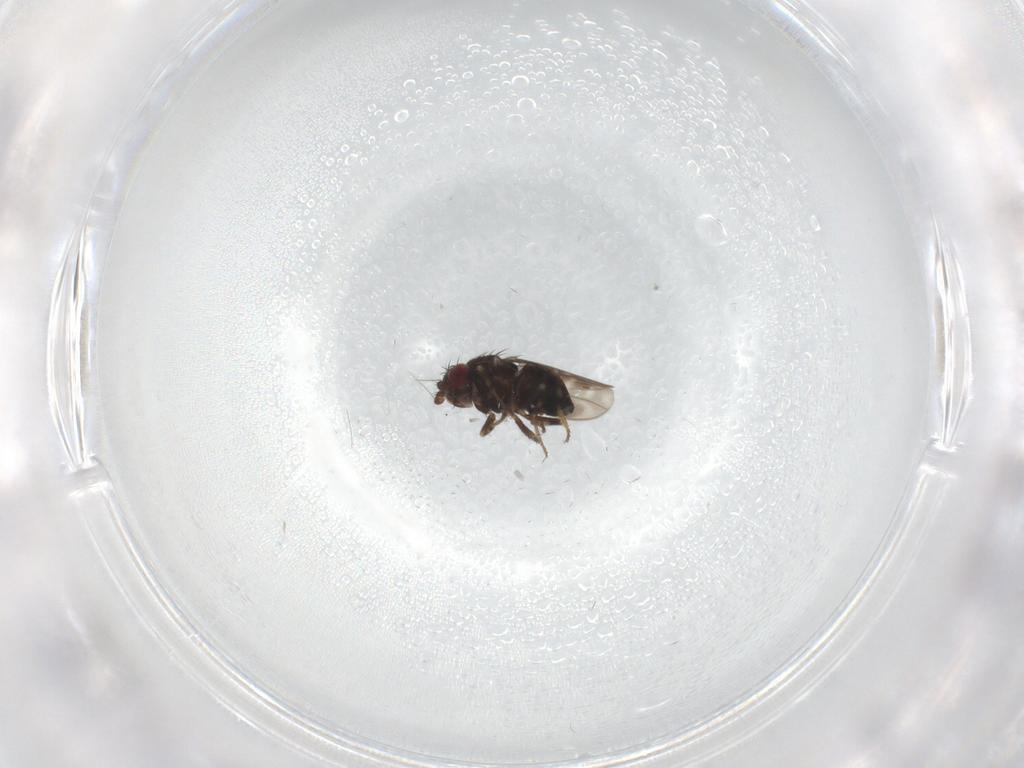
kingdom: Animalia
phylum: Arthropoda
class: Insecta
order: Diptera
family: Cecidomyiidae
